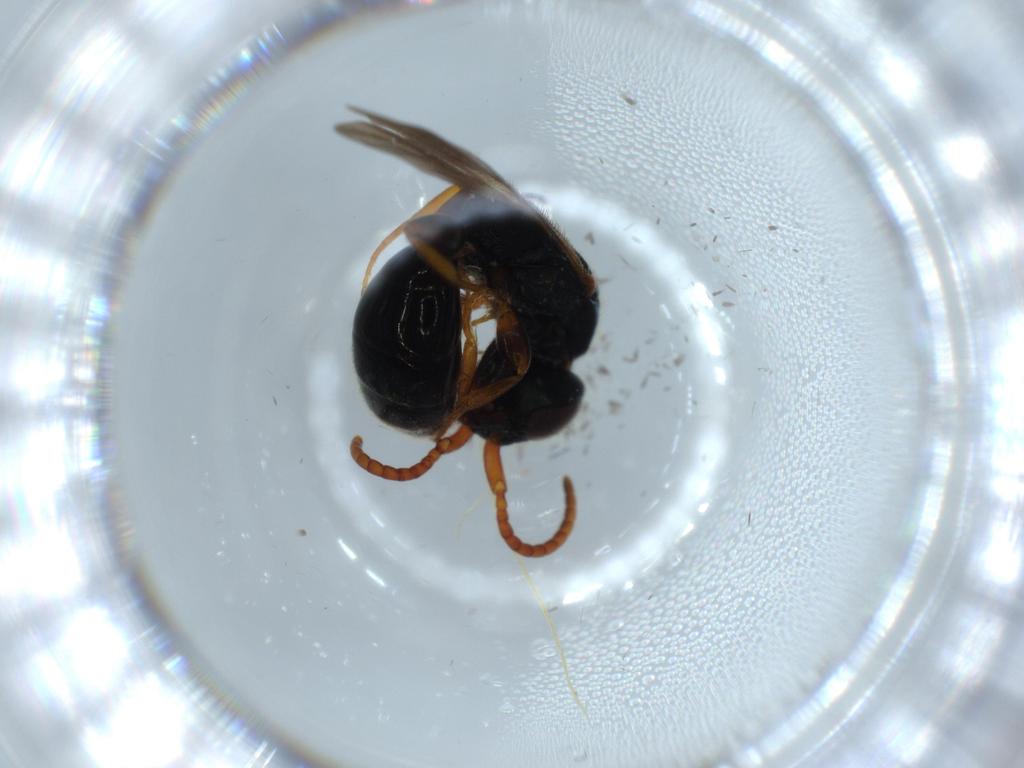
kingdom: Animalia
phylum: Arthropoda
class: Insecta
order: Hymenoptera
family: Bethylidae
